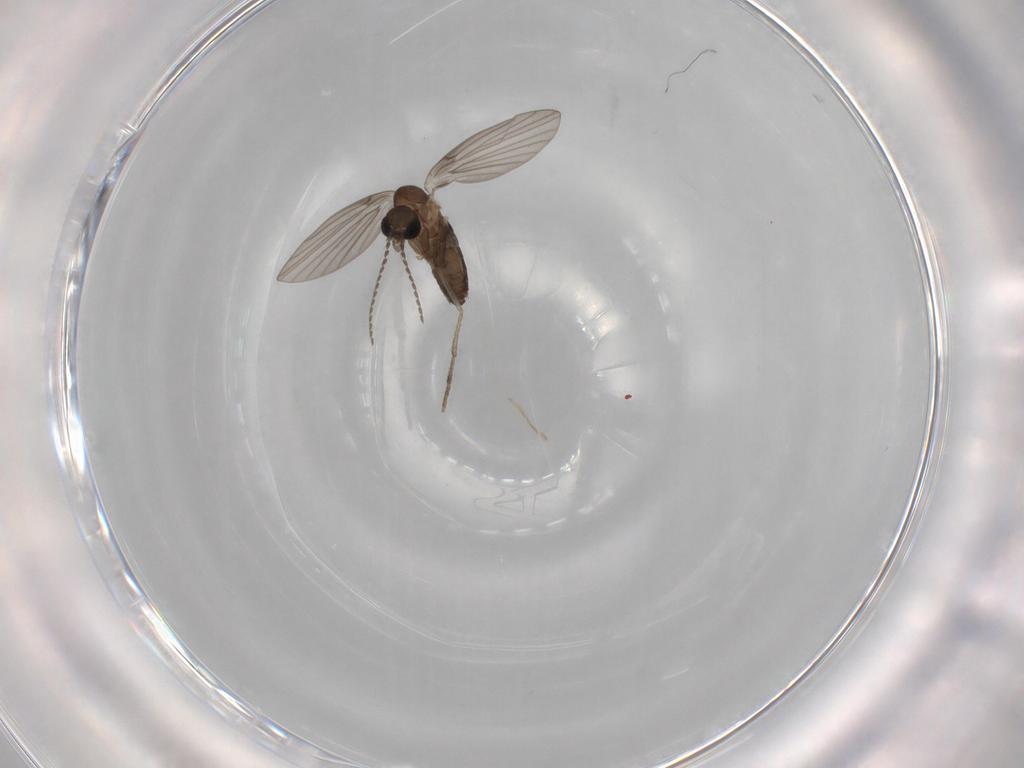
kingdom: Animalia
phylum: Arthropoda
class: Insecta
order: Diptera
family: Psychodidae
